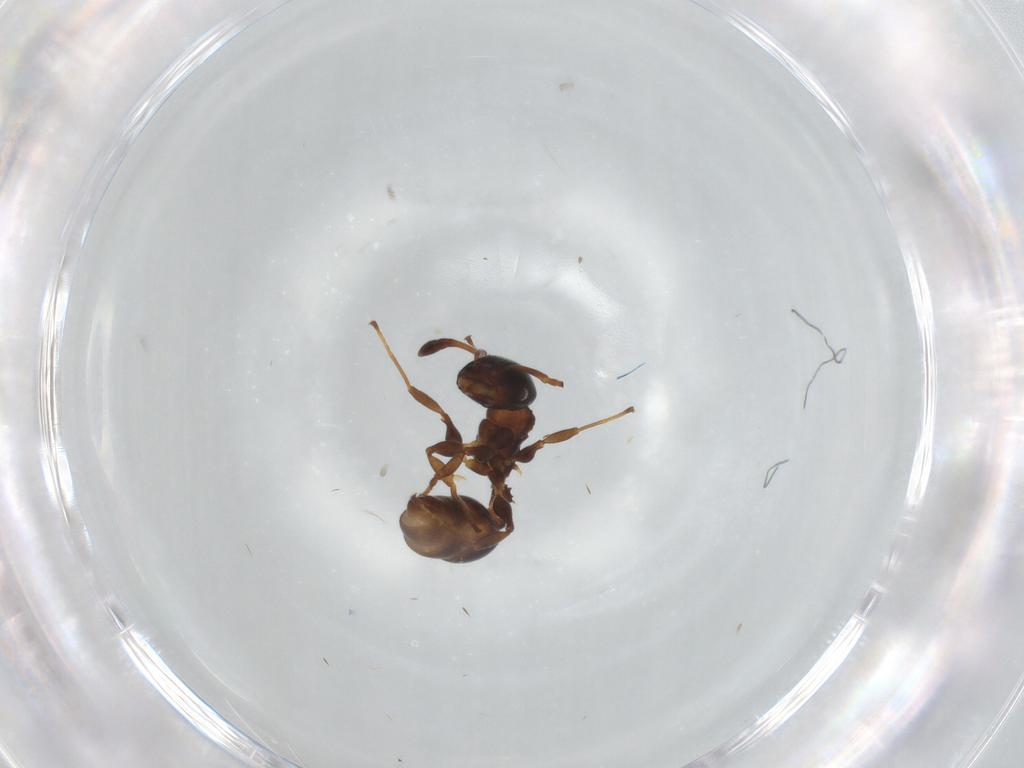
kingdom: Animalia
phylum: Arthropoda
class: Insecta
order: Hymenoptera
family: Formicidae
